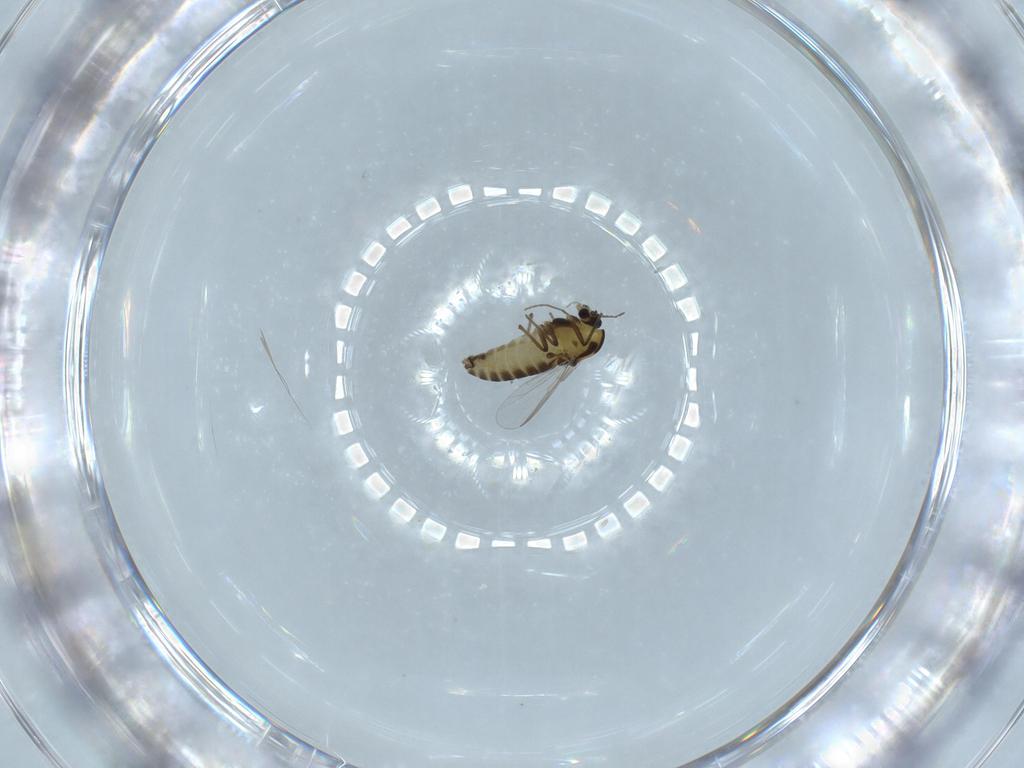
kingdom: Animalia
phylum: Arthropoda
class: Insecta
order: Diptera
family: Chironomidae
